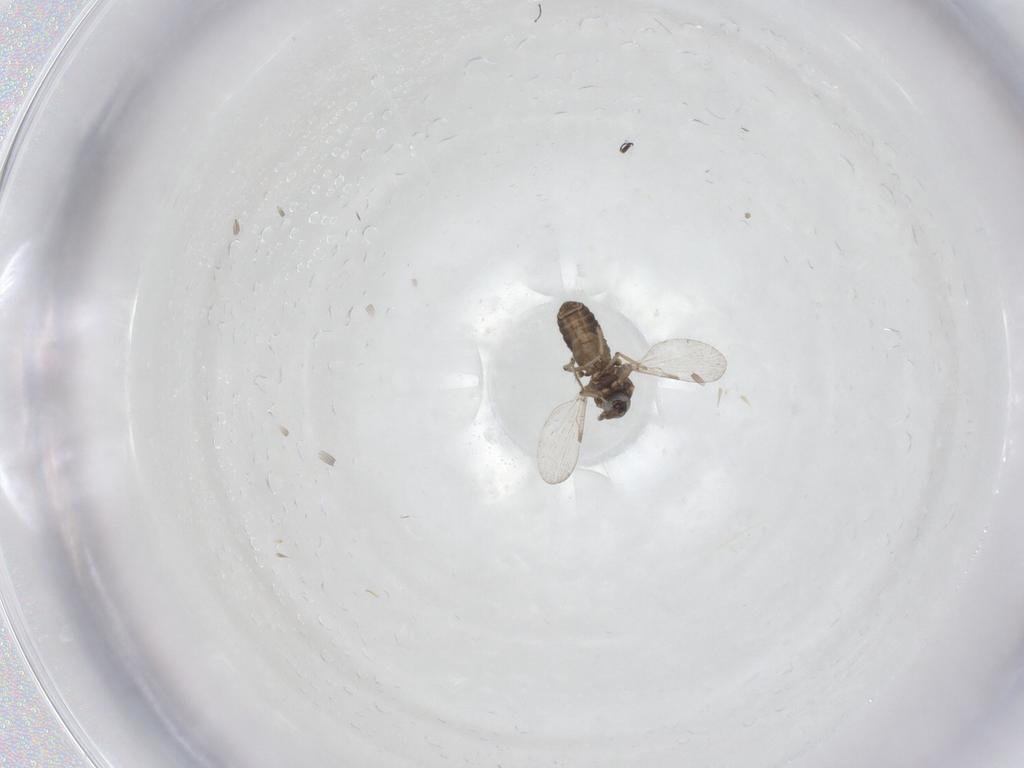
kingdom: Animalia
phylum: Arthropoda
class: Insecta
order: Diptera
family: Ceratopogonidae
